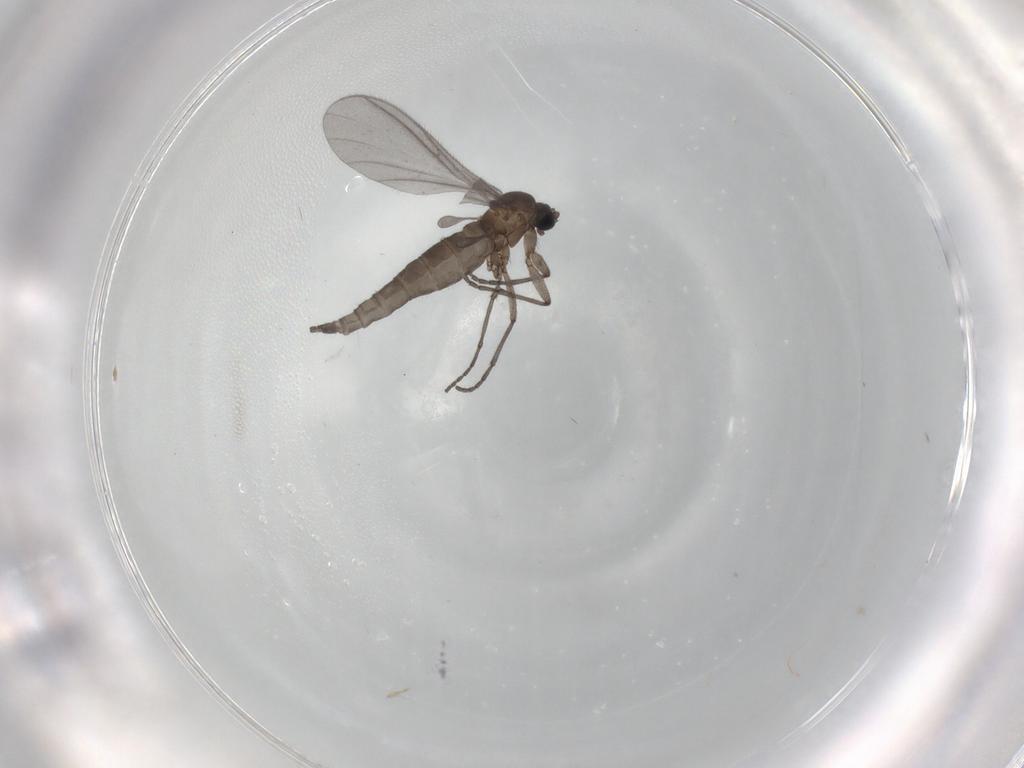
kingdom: Animalia
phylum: Arthropoda
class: Insecta
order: Diptera
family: Sciaridae
